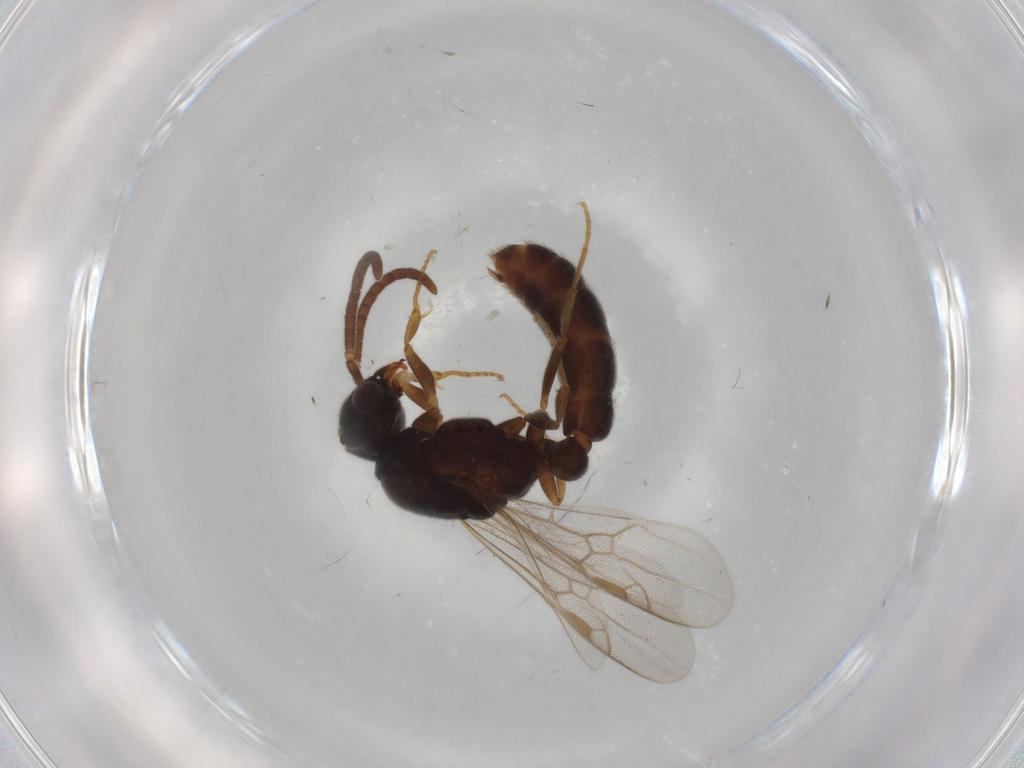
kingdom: Animalia
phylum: Arthropoda
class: Insecta
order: Hymenoptera
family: Formicidae
